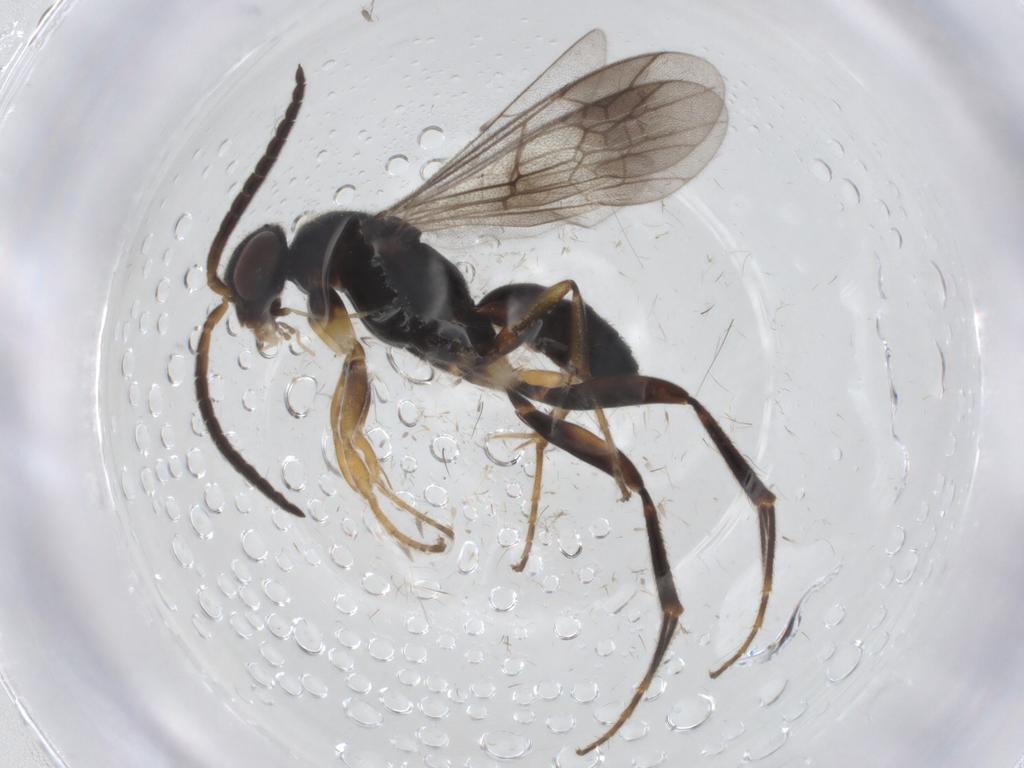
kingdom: Animalia
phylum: Arthropoda
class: Insecta
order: Hymenoptera
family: Pompilidae
